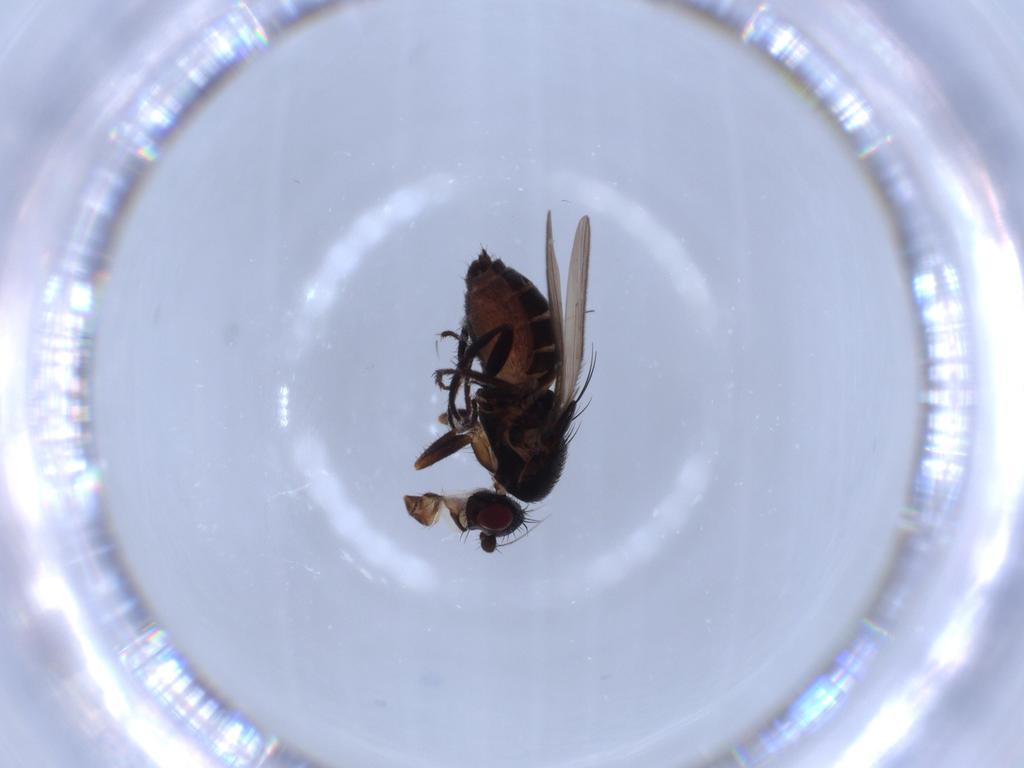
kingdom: Animalia
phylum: Arthropoda
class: Insecta
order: Diptera
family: Sphaeroceridae
